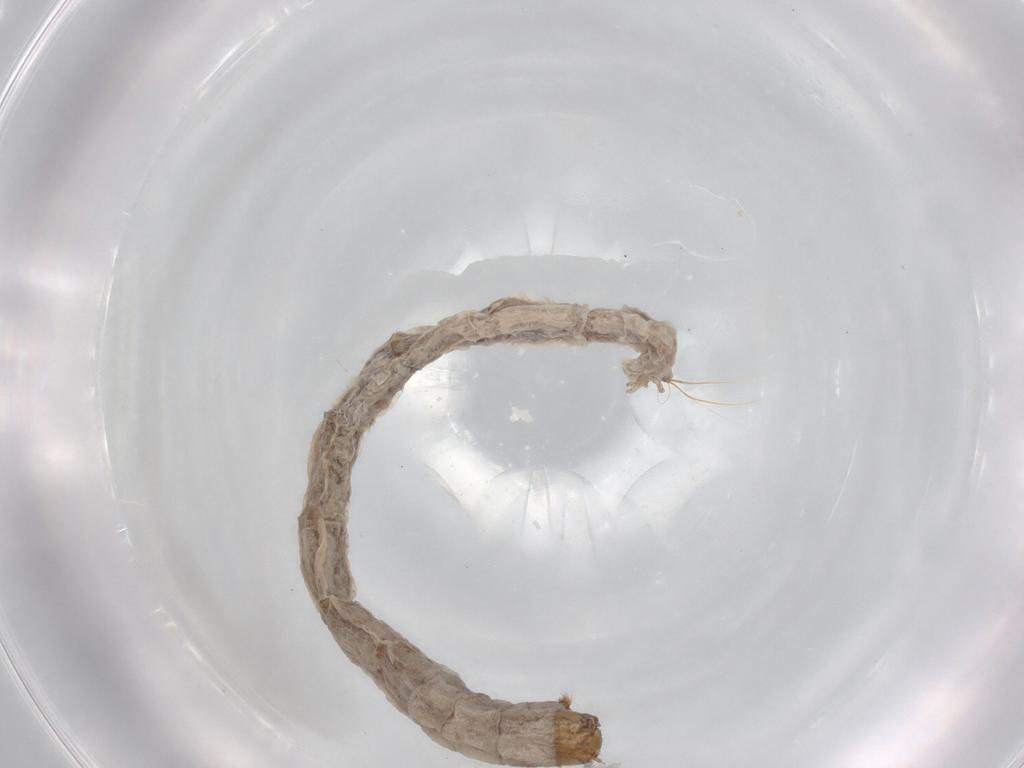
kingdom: Animalia
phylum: Arthropoda
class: Insecta
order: Diptera
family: Chironomidae
